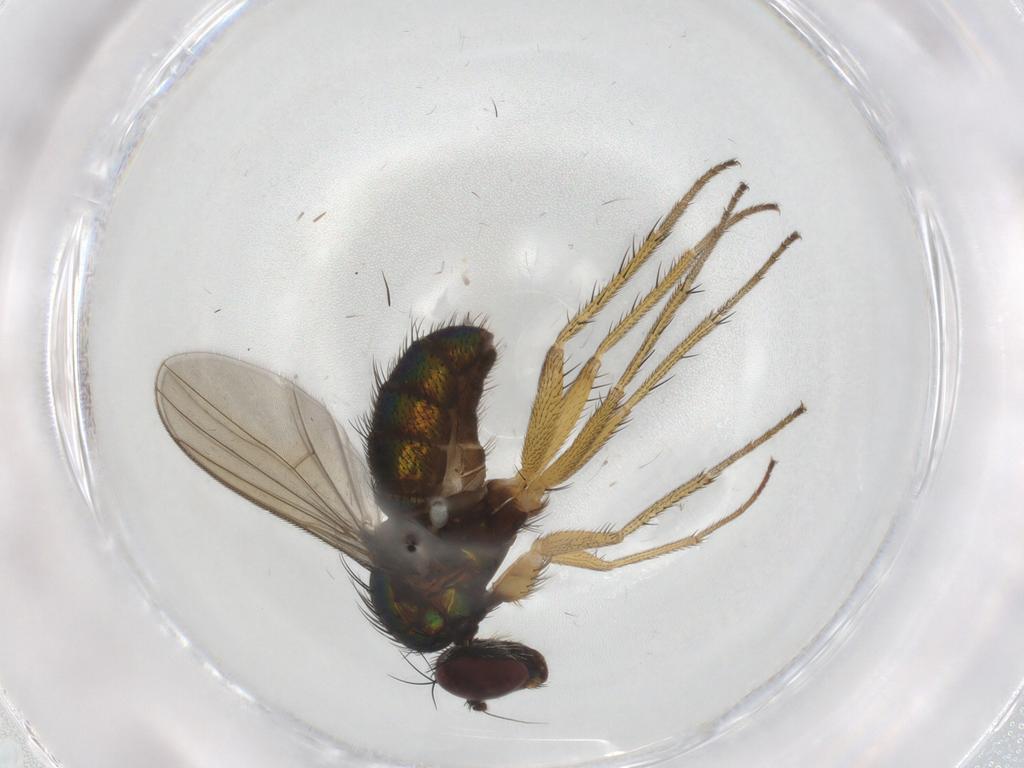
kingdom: Animalia
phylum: Arthropoda
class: Insecta
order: Diptera
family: Dolichopodidae
